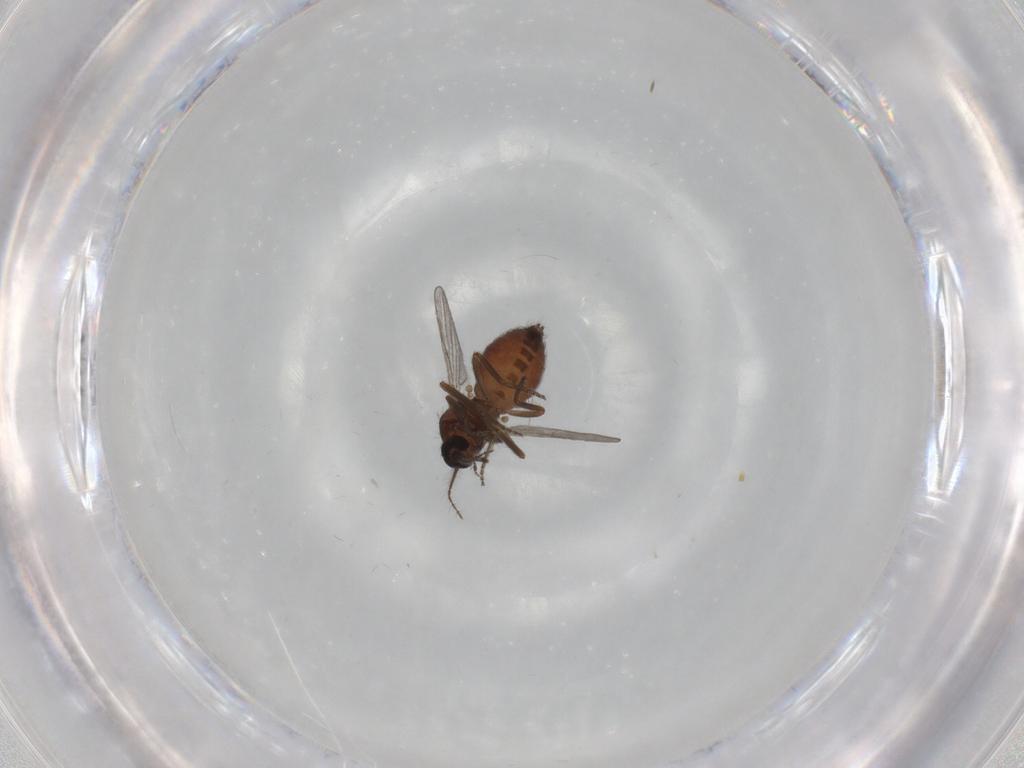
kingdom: Animalia
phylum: Arthropoda
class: Insecta
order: Diptera
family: Ceratopogonidae
